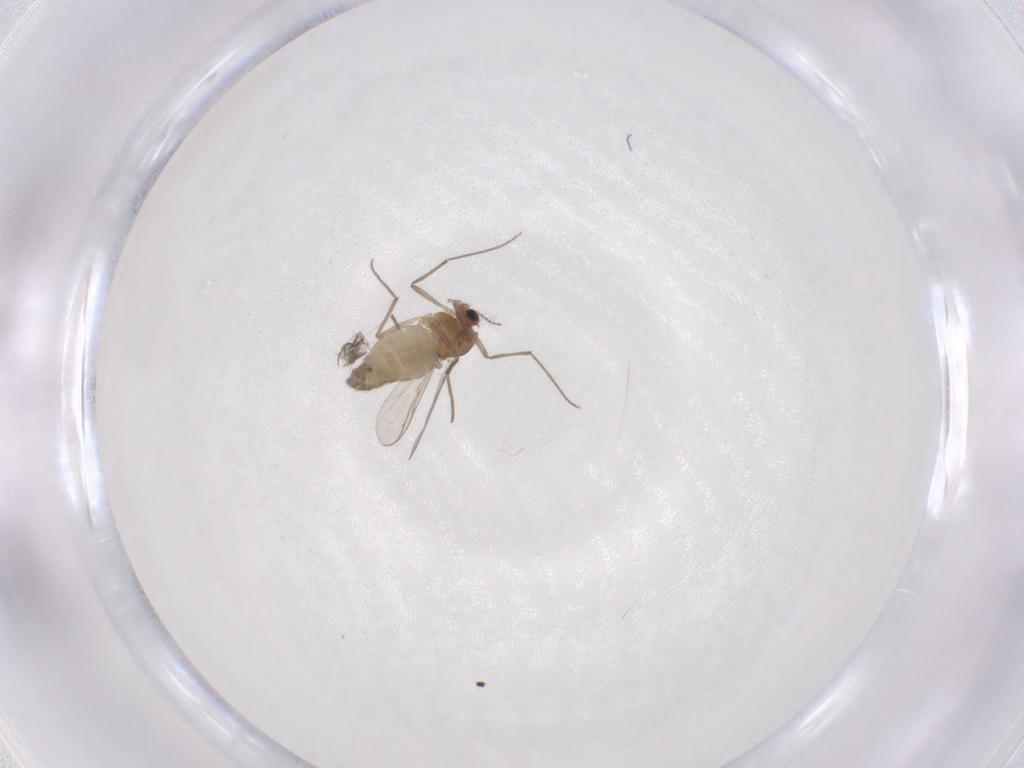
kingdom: Animalia
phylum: Arthropoda
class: Insecta
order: Diptera
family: Chironomidae
